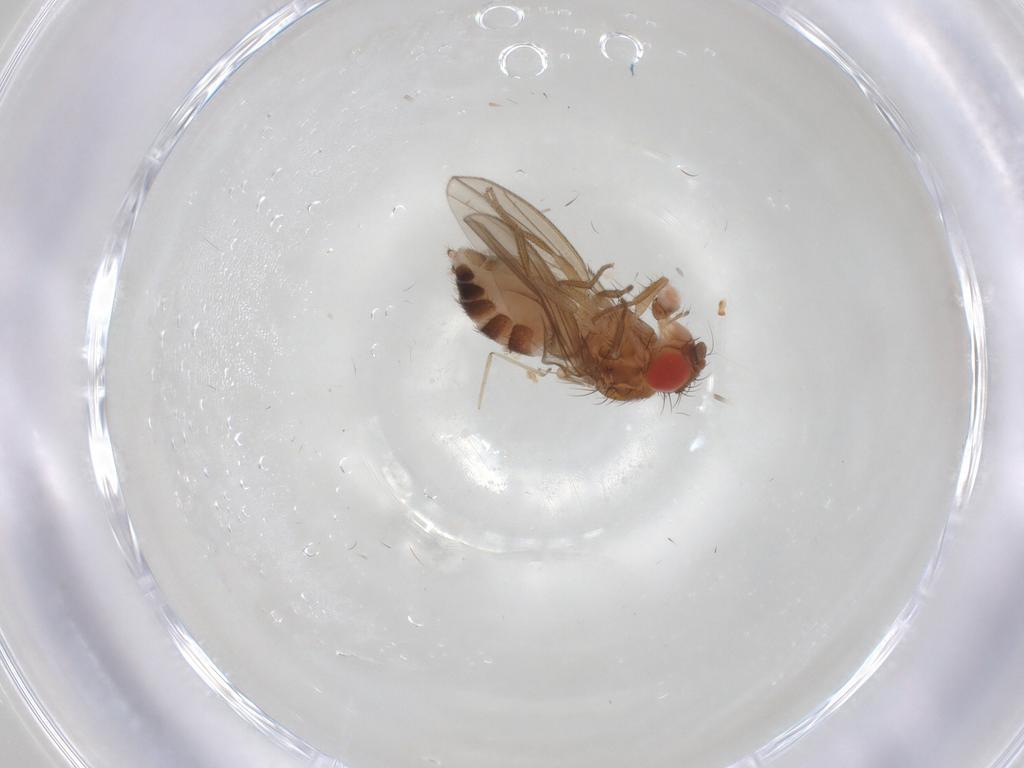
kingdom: Animalia
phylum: Arthropoda
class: Insecta
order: Diptera
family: Drosophilidae
